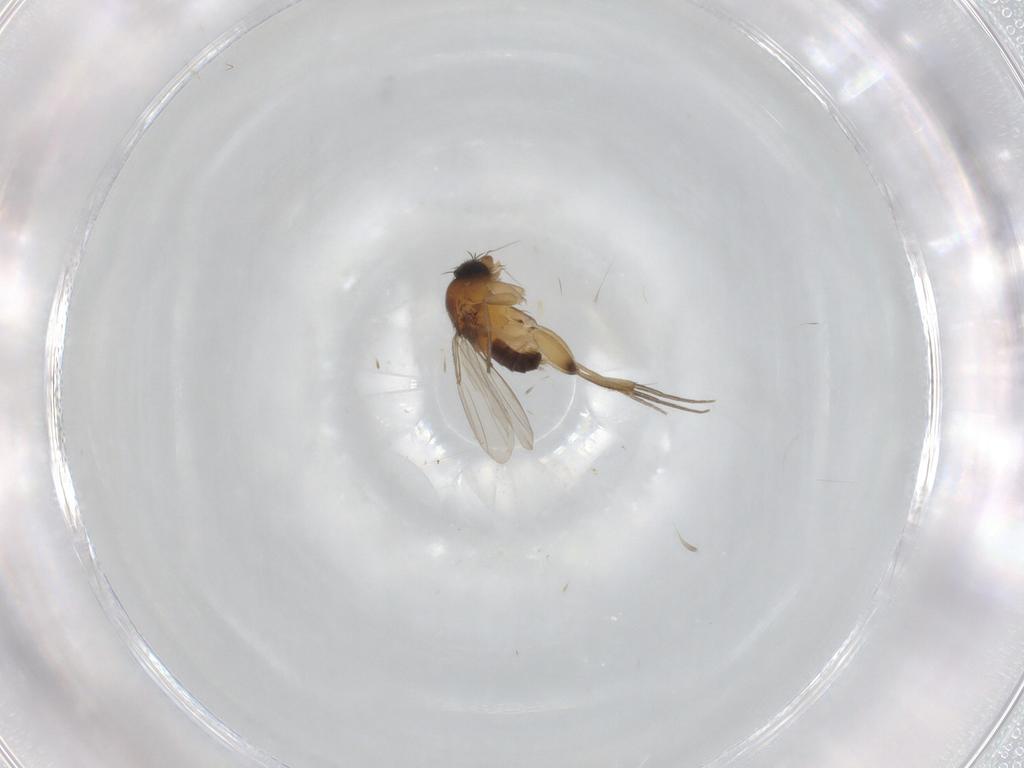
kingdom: Animalia
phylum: Arthropoda
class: Insecta
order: Diptera
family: Phoridae
